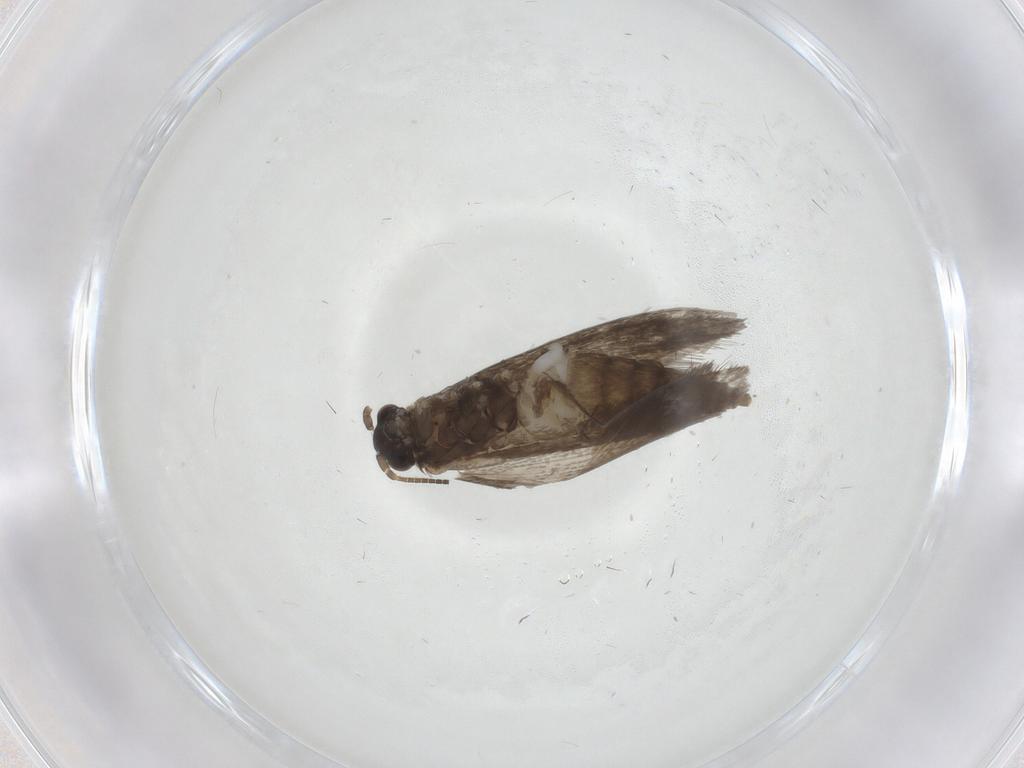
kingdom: Animalia
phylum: Arthropoda
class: Insecta
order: Lepidoptera
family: Micropterigidae
